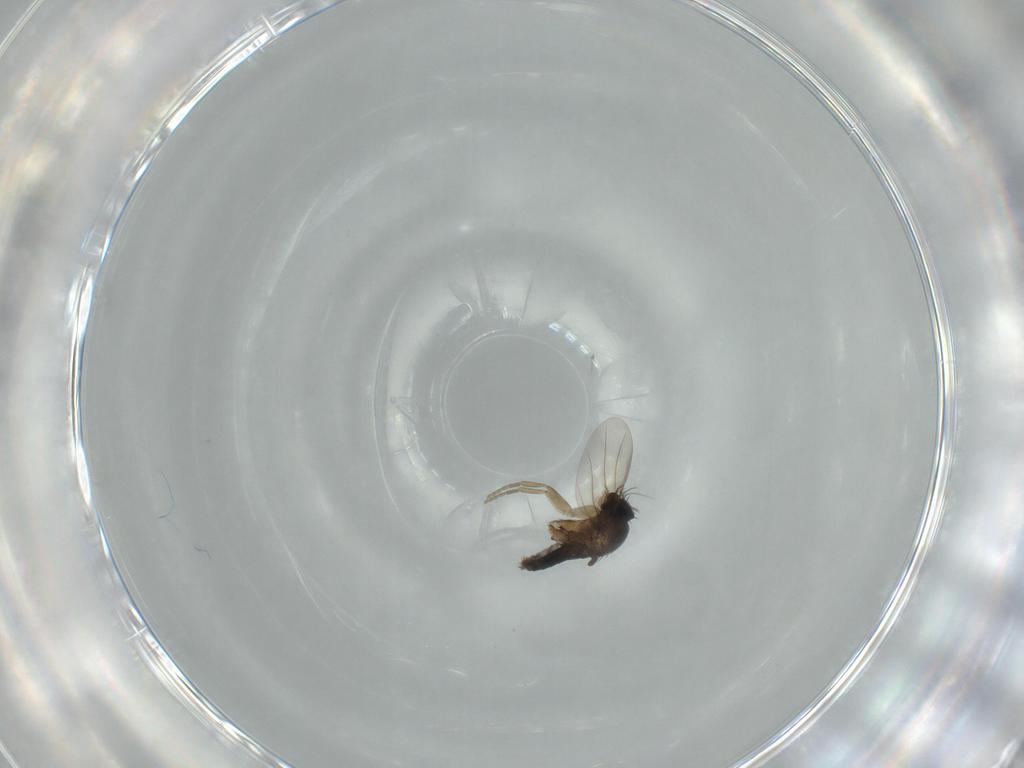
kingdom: Animalia
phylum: Arthropoda
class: Insecta
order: Diptera
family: Phoridae
